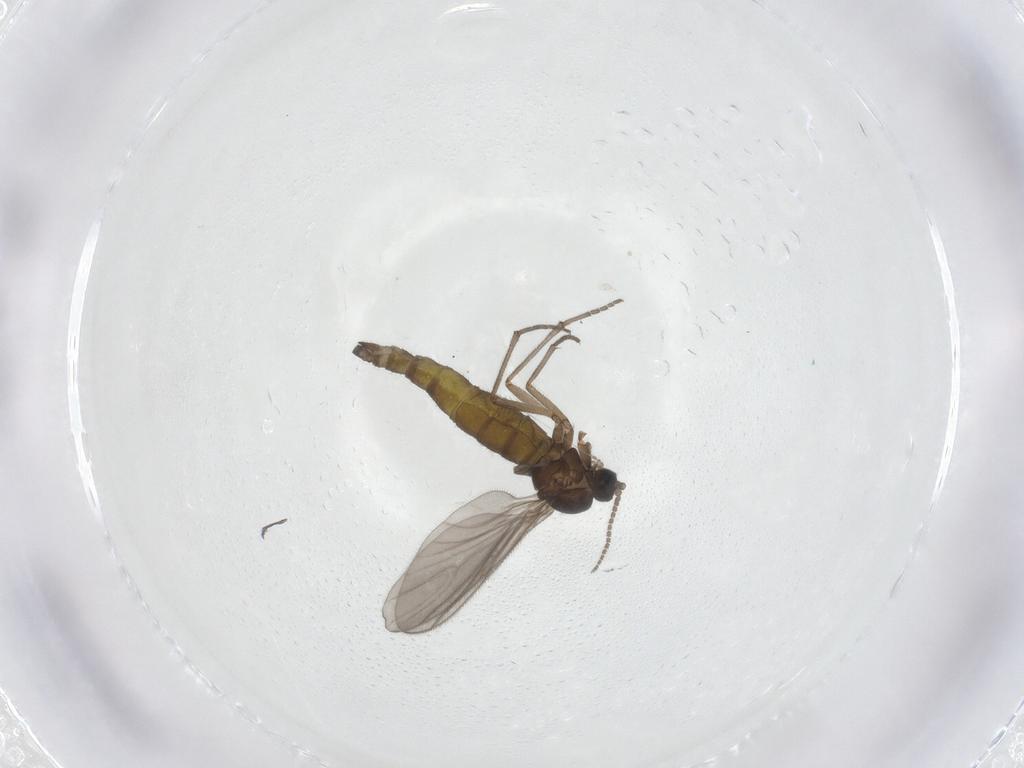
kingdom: Animalia
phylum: Arthropoda
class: Insecta
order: Diptera
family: Sciaridae
